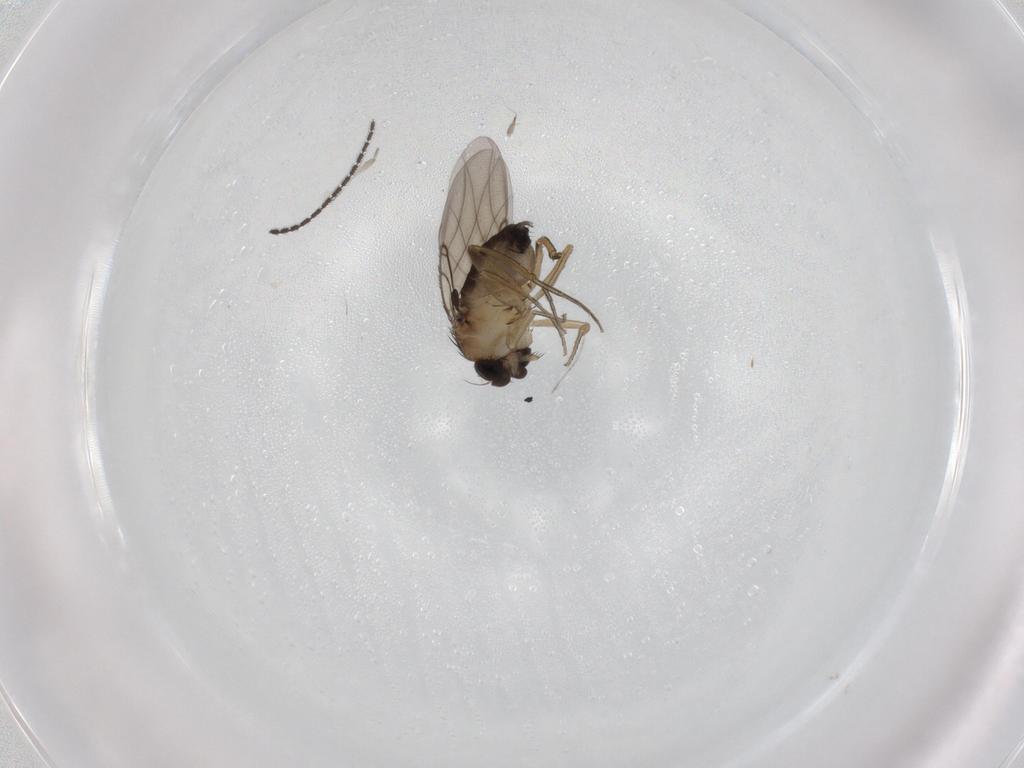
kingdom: Animalia
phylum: Arthropoda
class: Insecta
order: Diptera
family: Sciaridae
